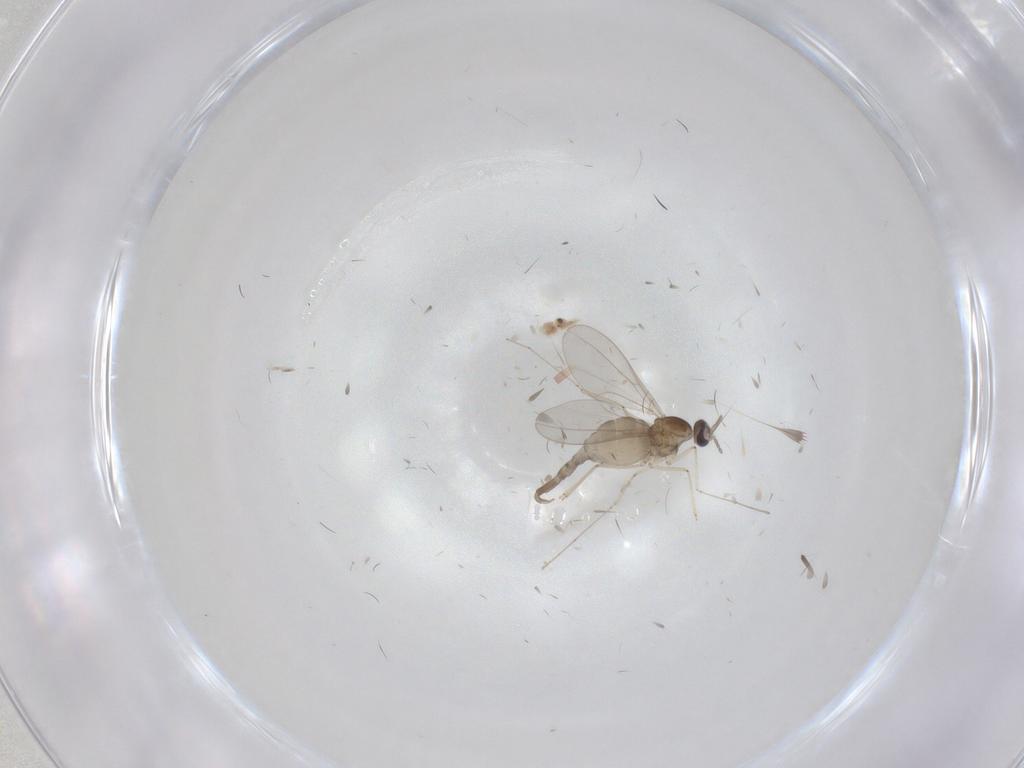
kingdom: Animalia
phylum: Arthropoda
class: Insecta
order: Diptera
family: Cecidomyiidae
